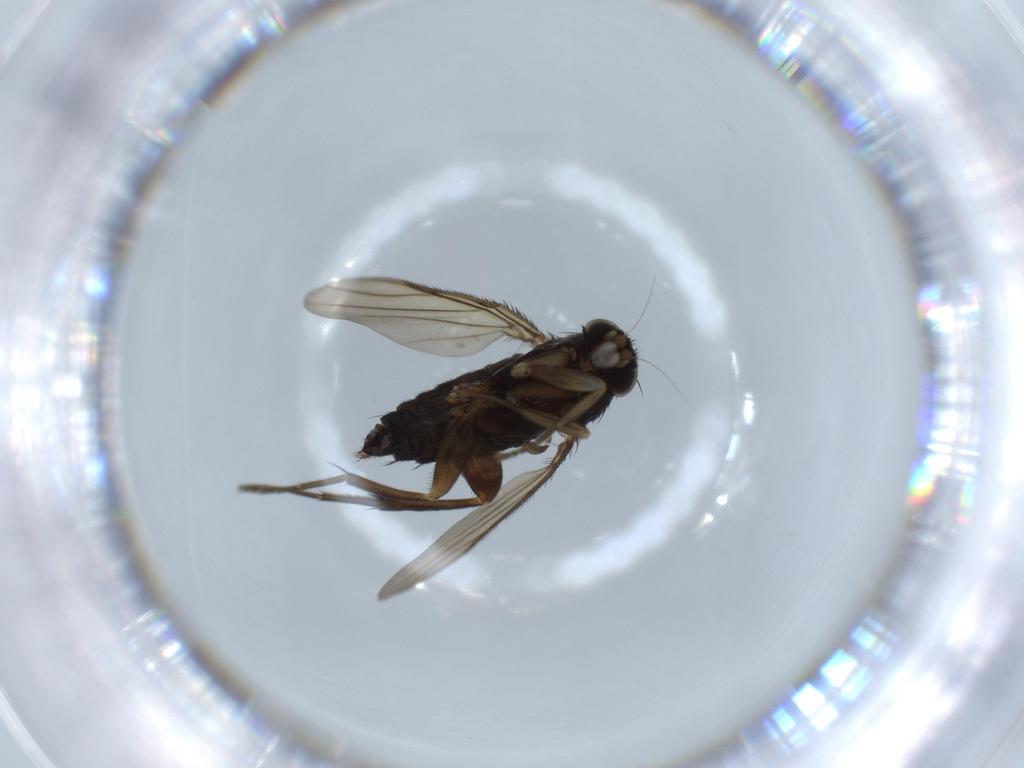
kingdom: Animalia
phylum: Arthropoda
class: Insecta
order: Diptera
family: Phoridae
